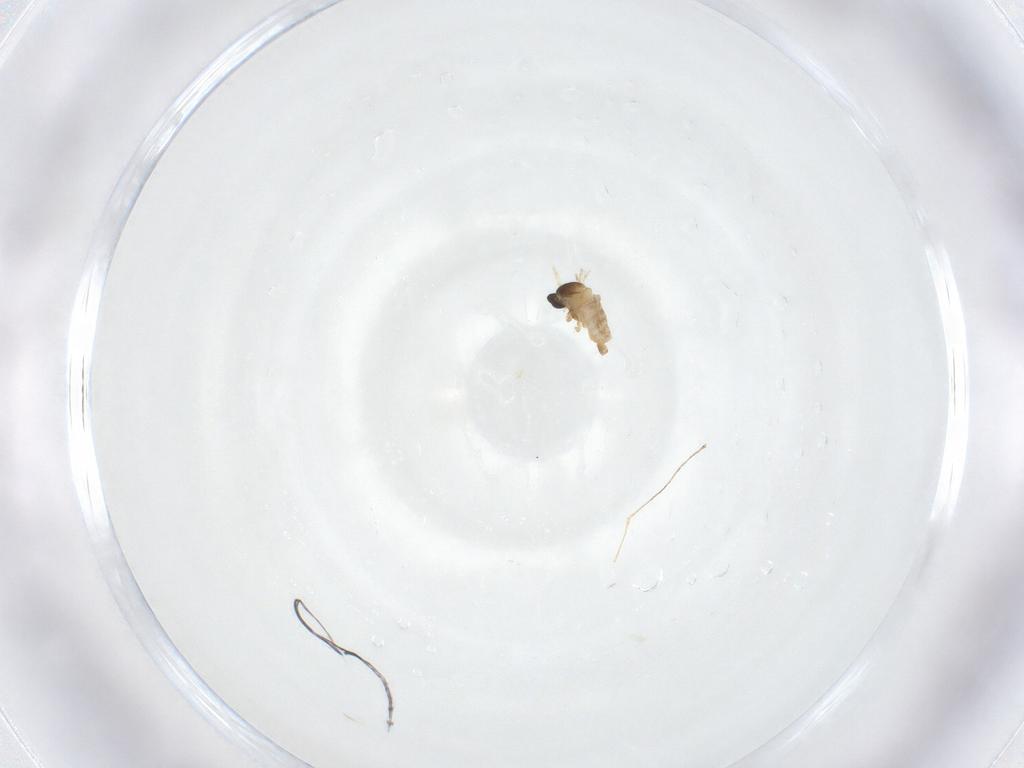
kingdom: Animalia
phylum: Arthropoda
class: Insecta
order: Diptera
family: Cecidomyiidae
